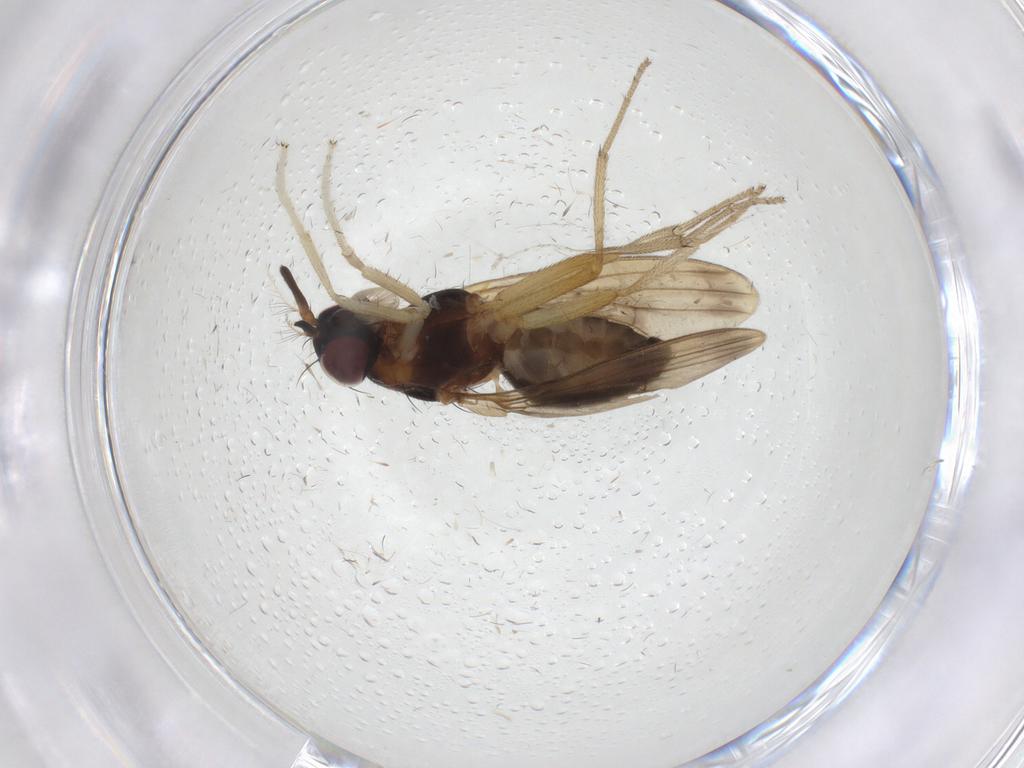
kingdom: Animalia
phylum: Arthropoda
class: Insecta
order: Diptera
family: Lauxaniidae
